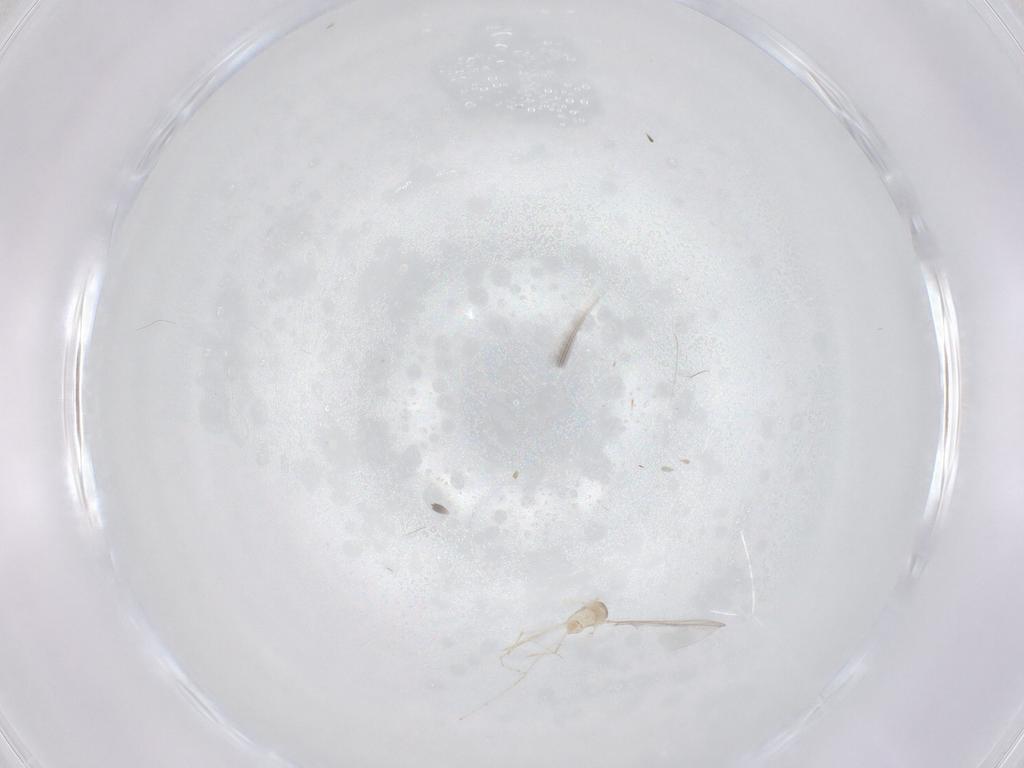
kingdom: Animalia
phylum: Arthropoda
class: Insecta
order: Diptera
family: Cecidomyiidae
